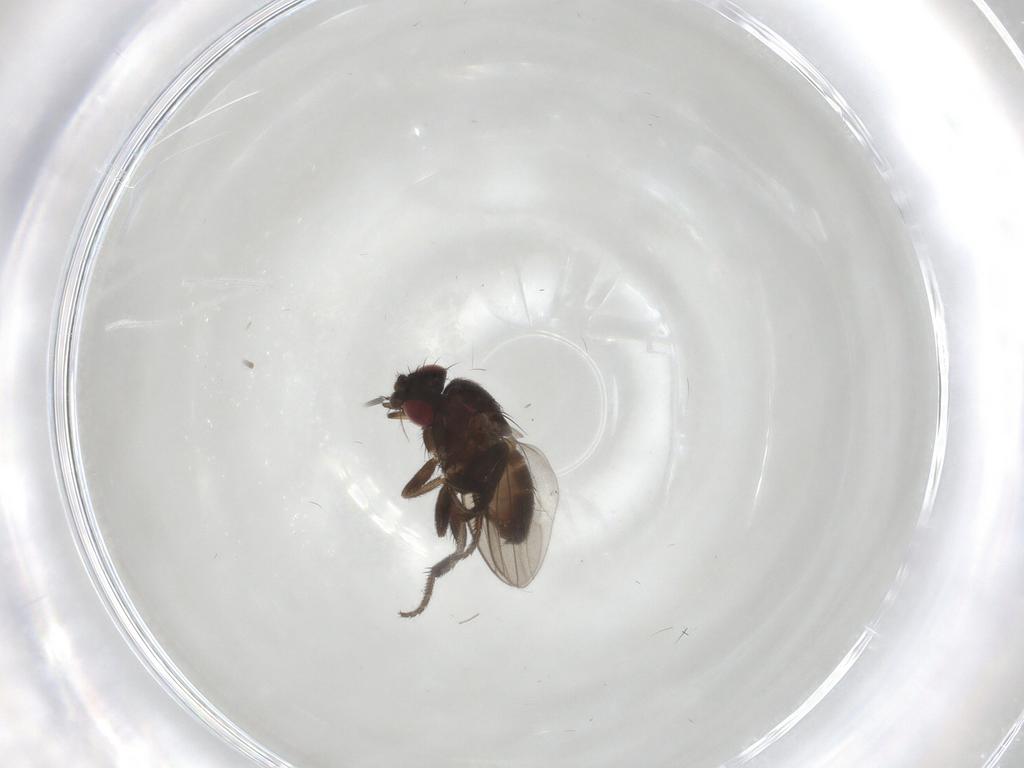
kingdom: Animalia
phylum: Arthropoda
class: Insecta
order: Diptera
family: Milichiidae
